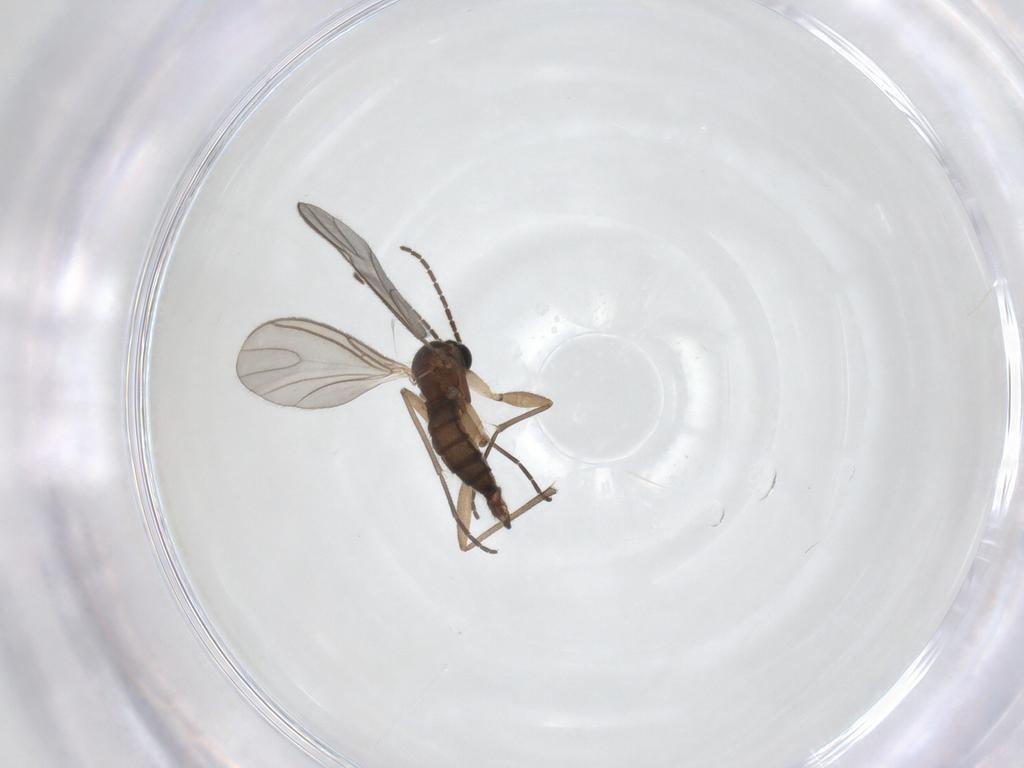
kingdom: Animalia
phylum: Arthropoda
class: Insecta
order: Diptera
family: Sciaridae
